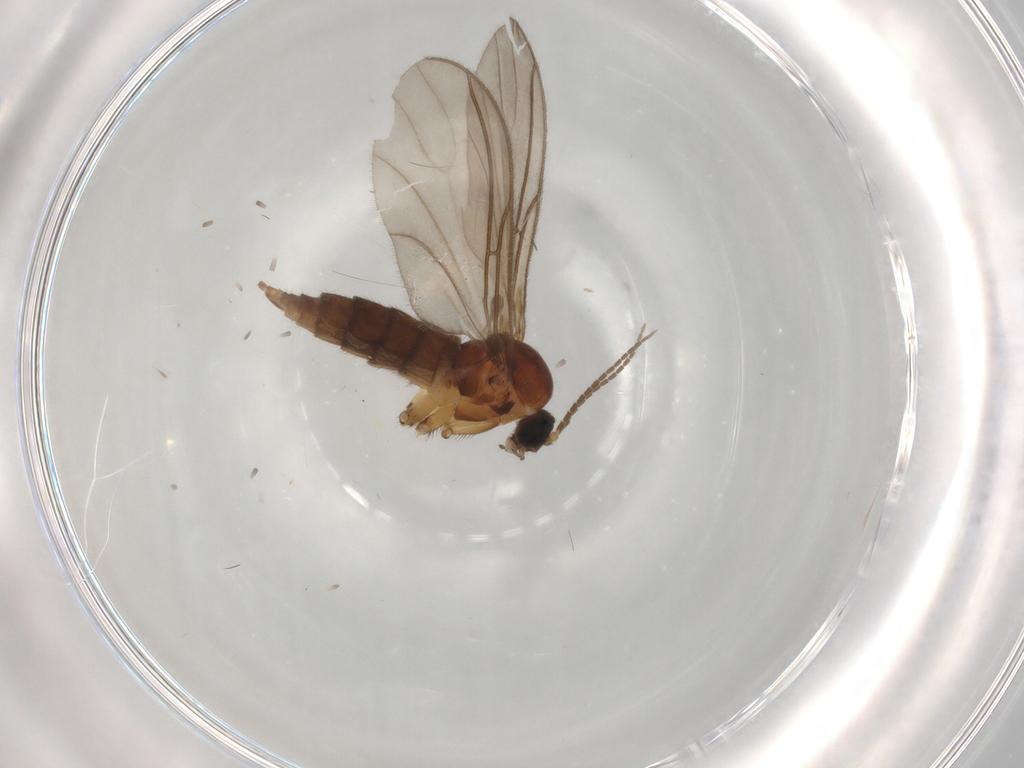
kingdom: Animalia
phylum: Arthropoda
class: Insecta
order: Diptera
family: Sciaridae
